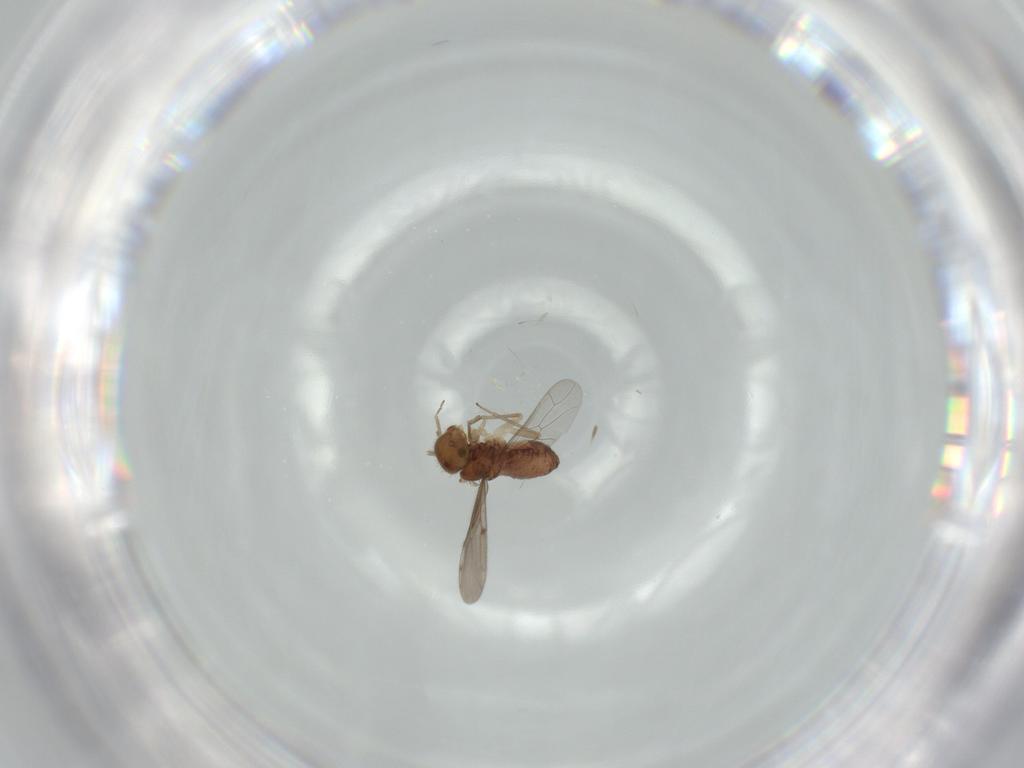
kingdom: Animalia
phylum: Arthropoda
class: Insecta
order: Psocodea
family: Ectopsocidae
